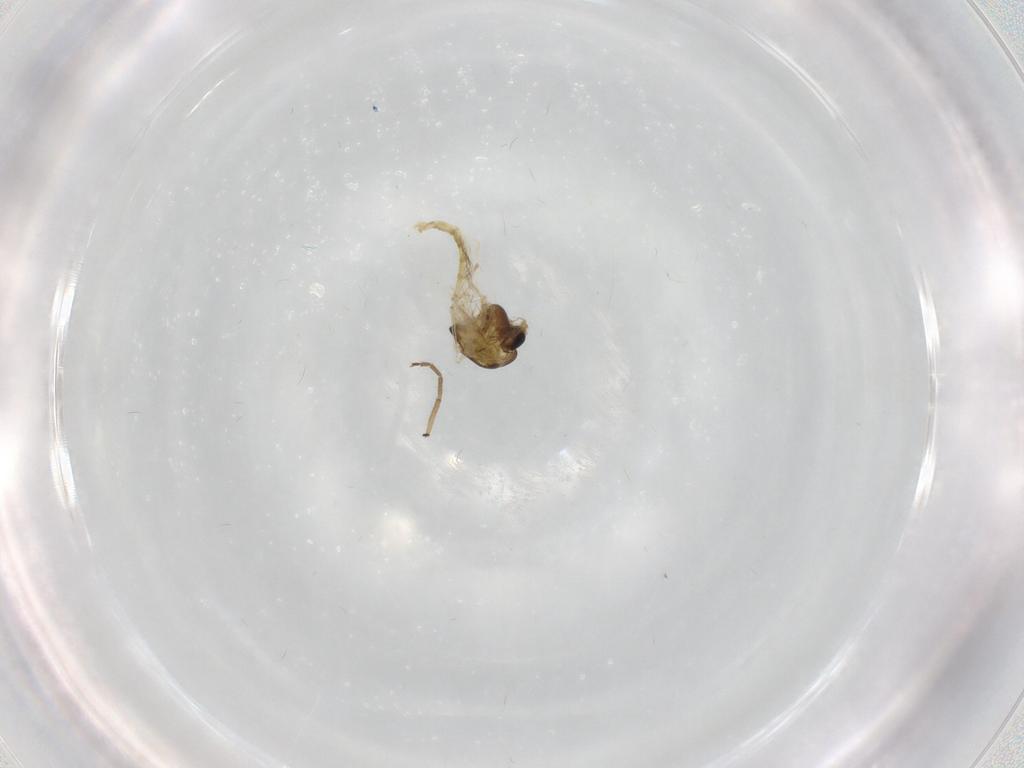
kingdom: Animalia
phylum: Arthropoda
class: Insecta
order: Diptera
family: Chironomidae
